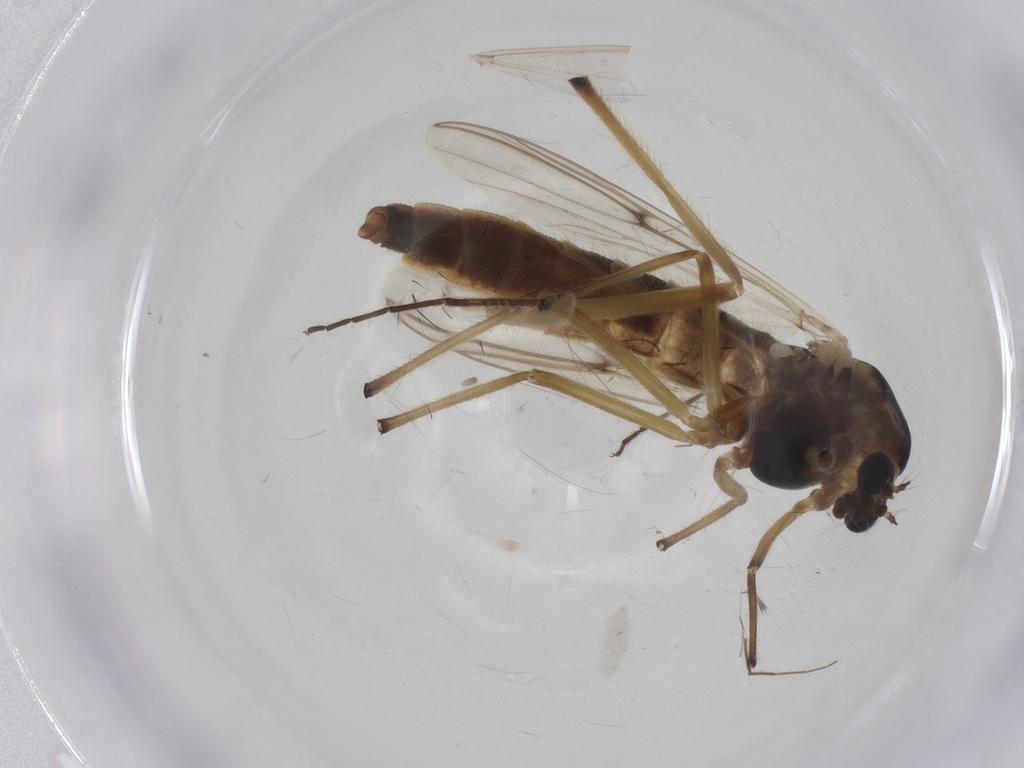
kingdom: Animalia
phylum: Arthropoda
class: Insecta
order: Diptera
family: Chironomidae
